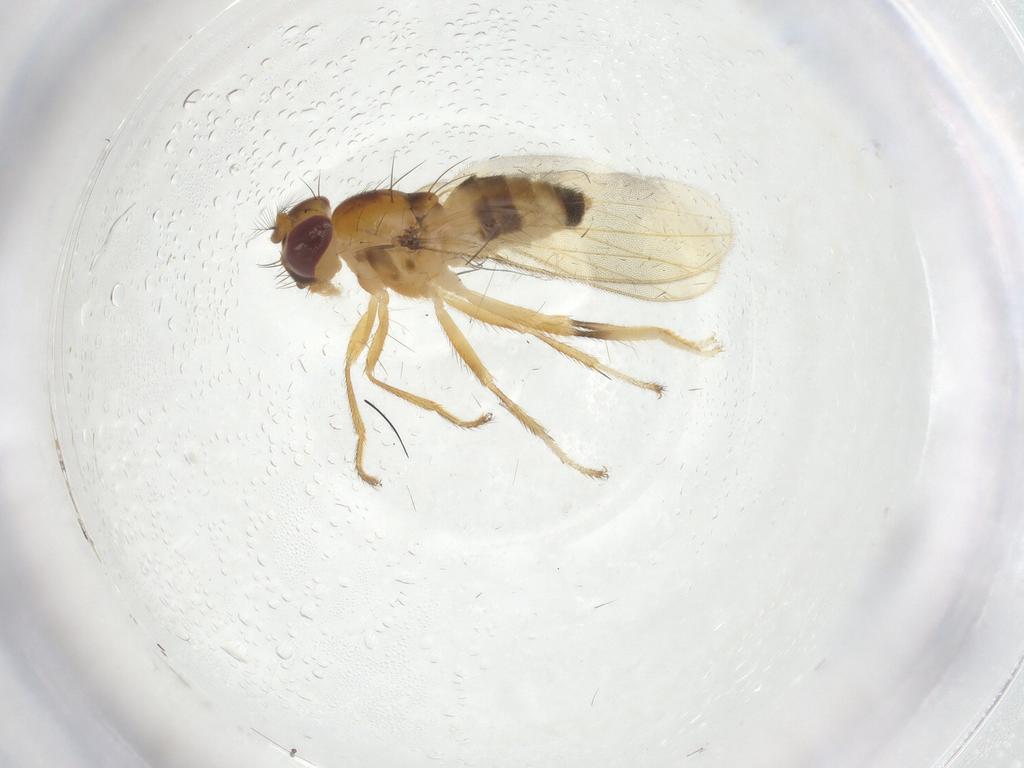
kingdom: Animalia
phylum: Arthropoda
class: Insecta
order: Diptera
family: Periscelididae
